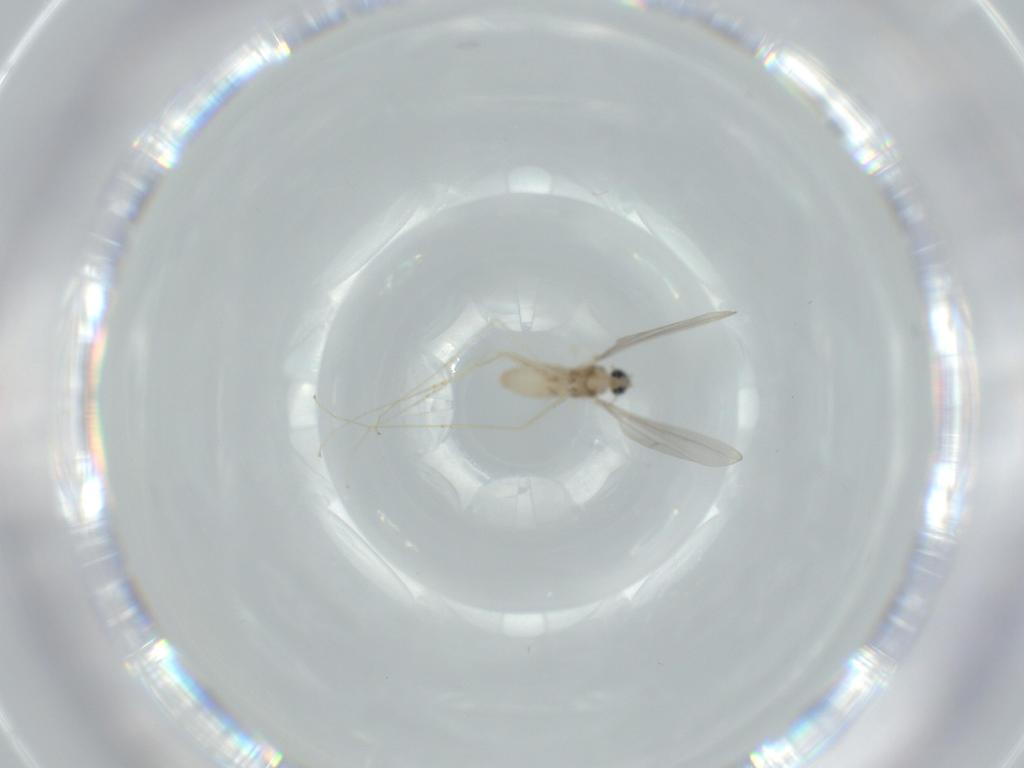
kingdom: Animalia
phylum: Arthropoda
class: Insecta
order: Diptera
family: Cecidomyiidae
